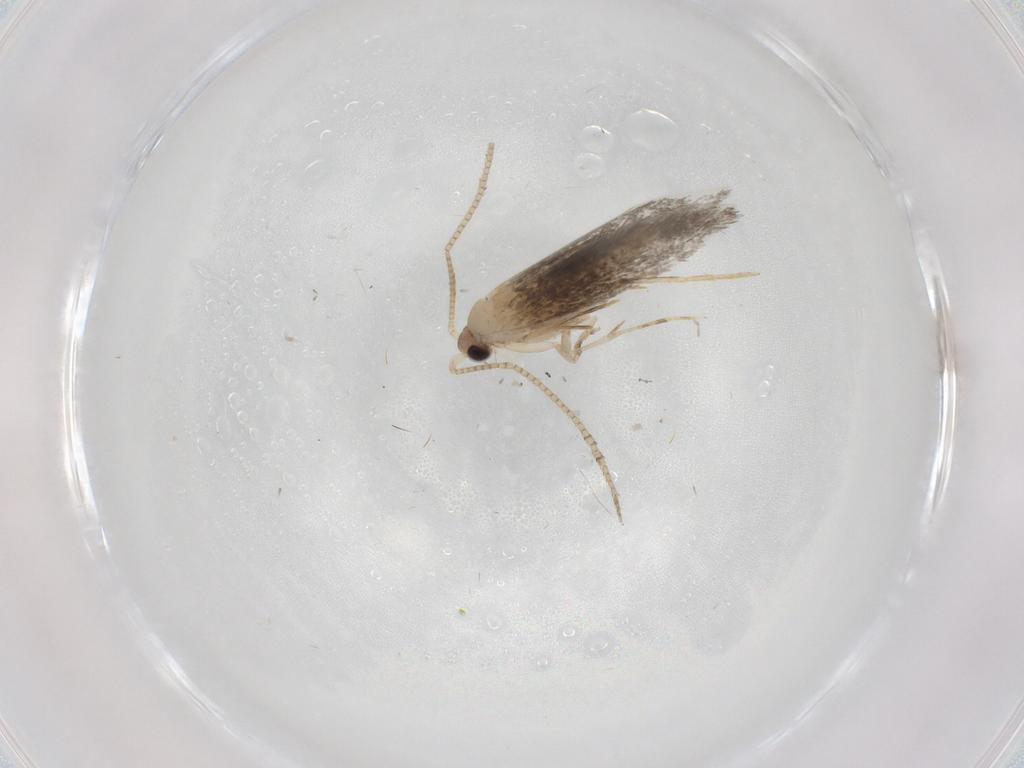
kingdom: Animalia
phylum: Arthropoda
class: Insecta
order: Lepidoptera
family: Tineidae
